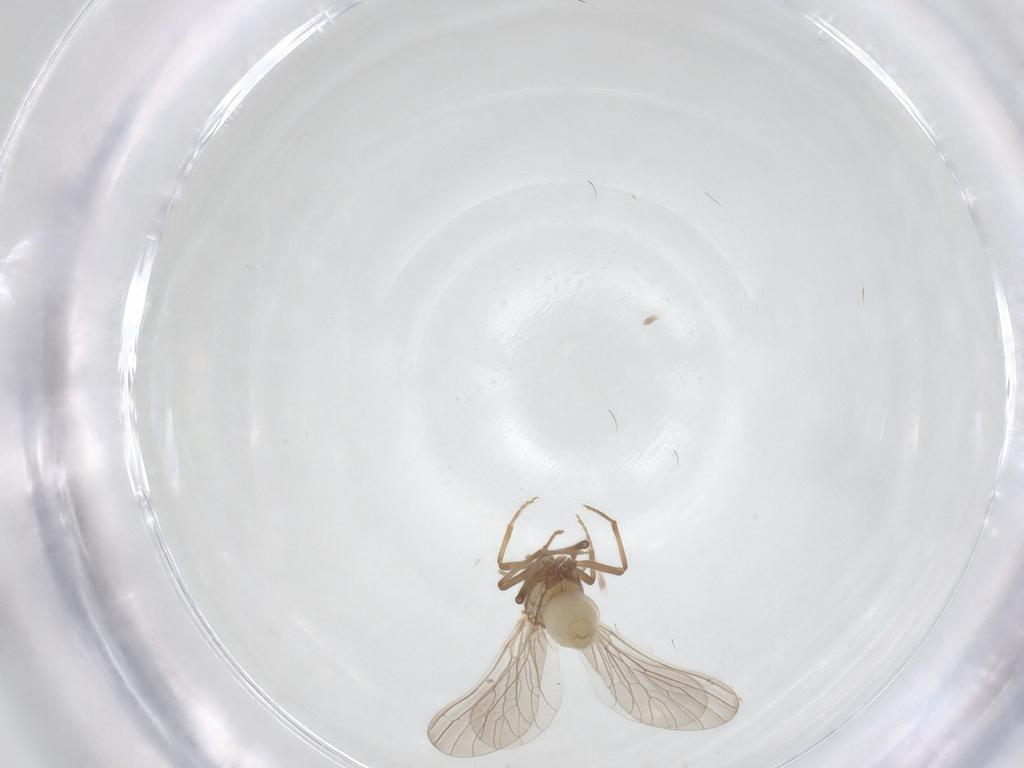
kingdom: Animalia
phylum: Arthropoda
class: Insecta
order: Neuroptera
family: Coniopterygidae
